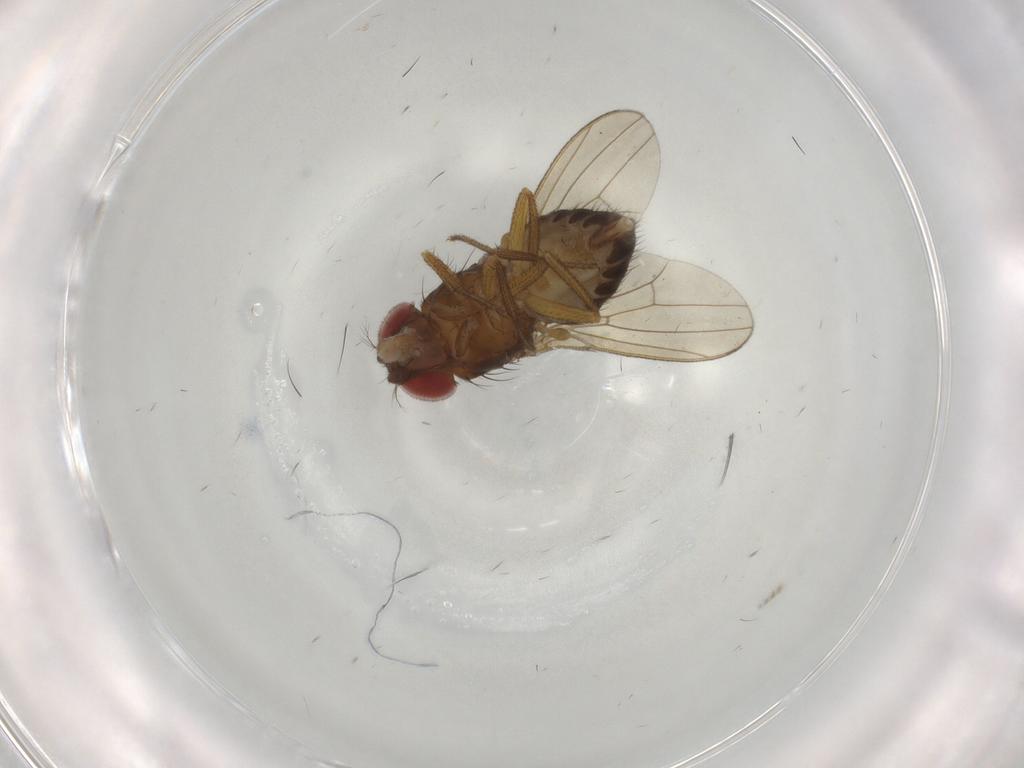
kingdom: Animalia
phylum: Arthropoda
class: Insecta
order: Diptera
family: Drosophilidae
